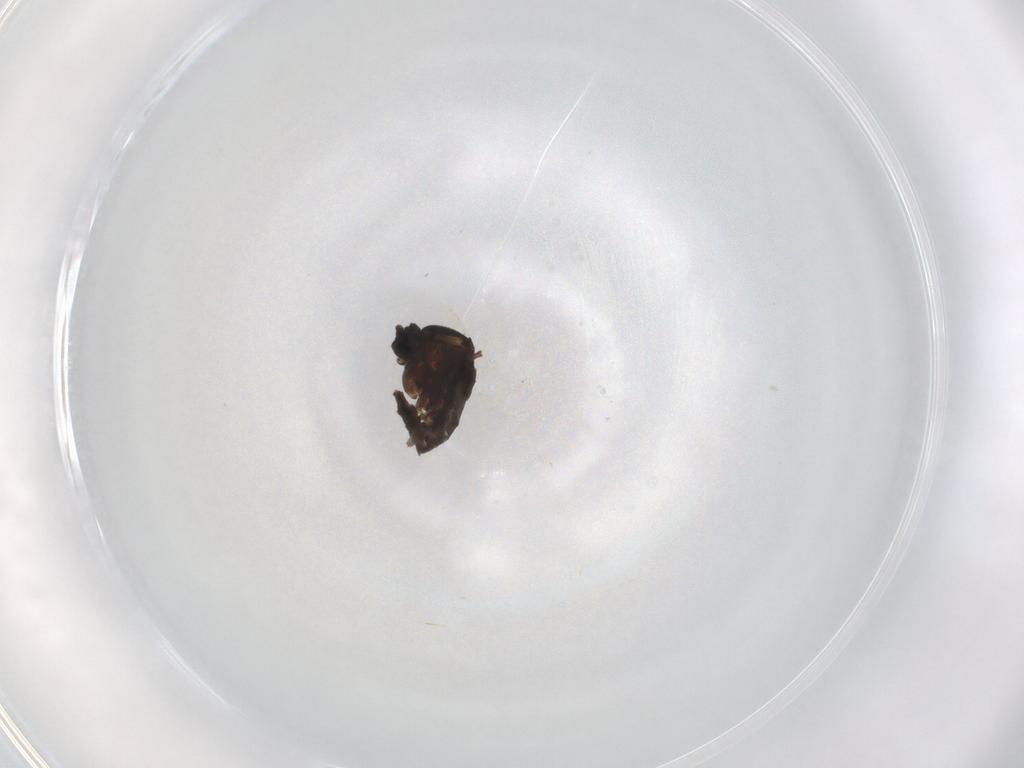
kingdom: Animalia
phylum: Arthropoda
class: Insecta
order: Diptera
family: Sciaridae
